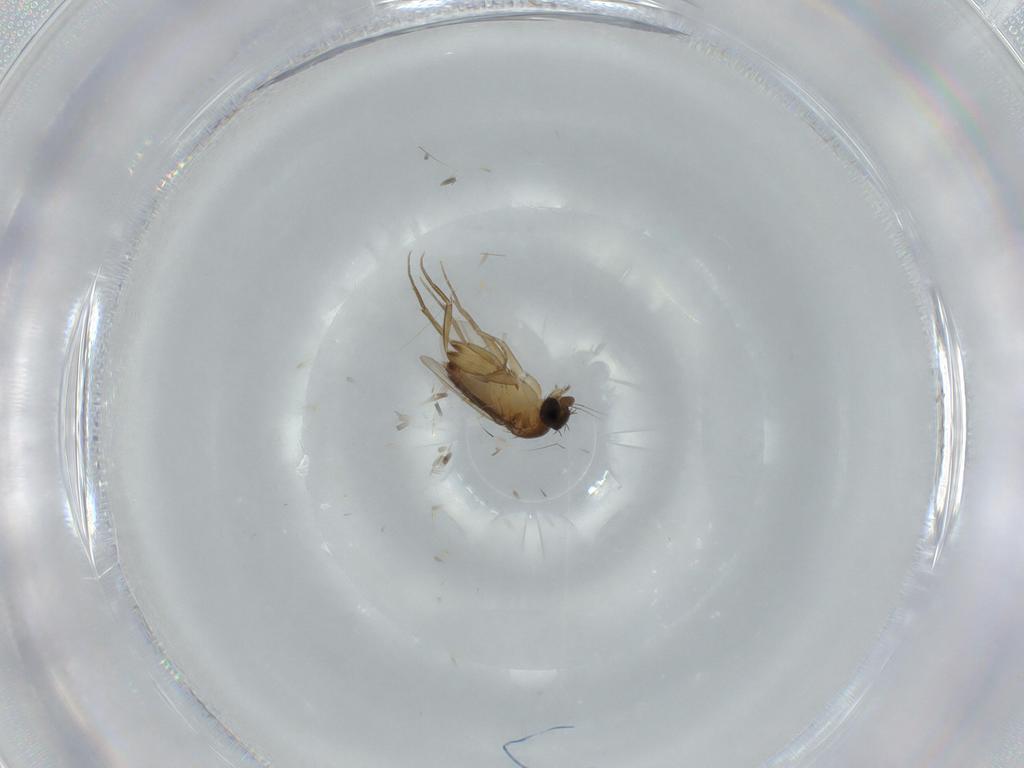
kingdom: Animalia
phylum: Arthropoda
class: Insecta
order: Diptera
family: Phoridae
